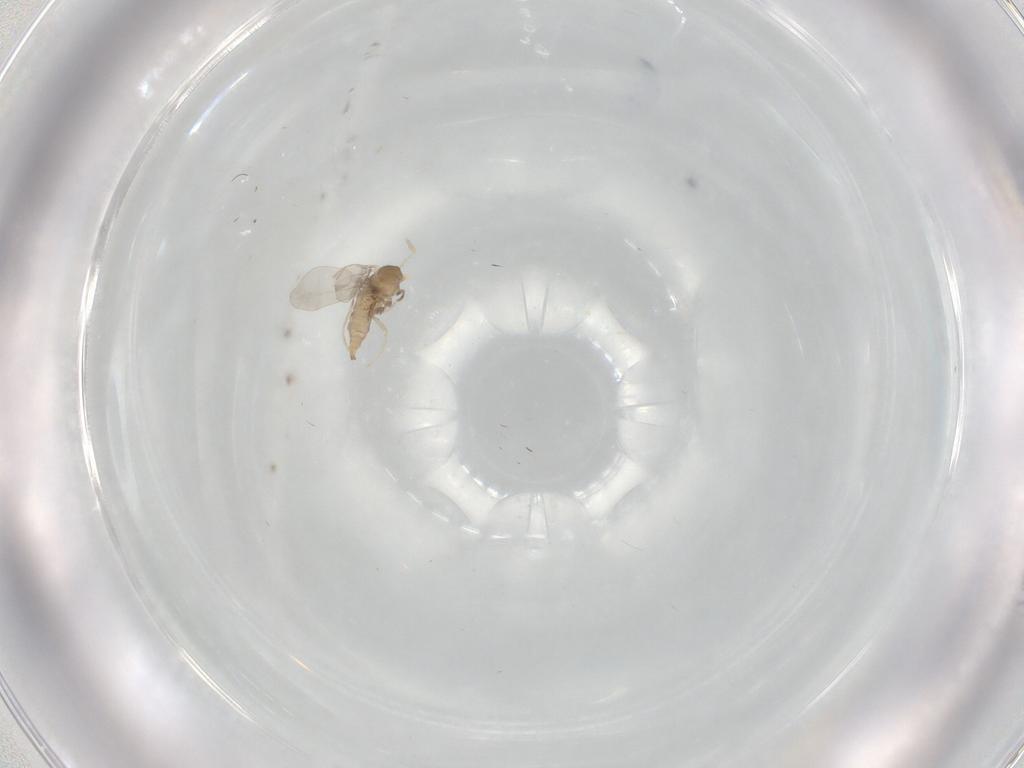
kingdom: Animalia
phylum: Arthropoda
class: Insecta
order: Diptera
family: Cecidomyiidae
